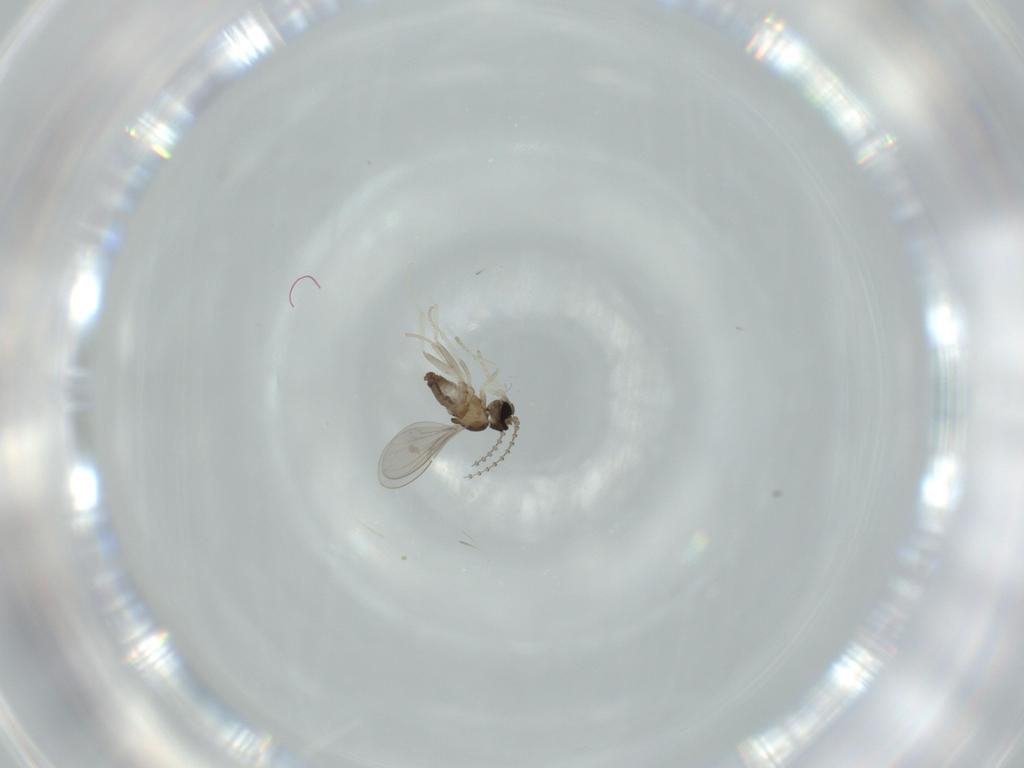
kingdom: Animalia
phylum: Arthropoda
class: Insecta
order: Diptera
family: Cecidomyiidae
